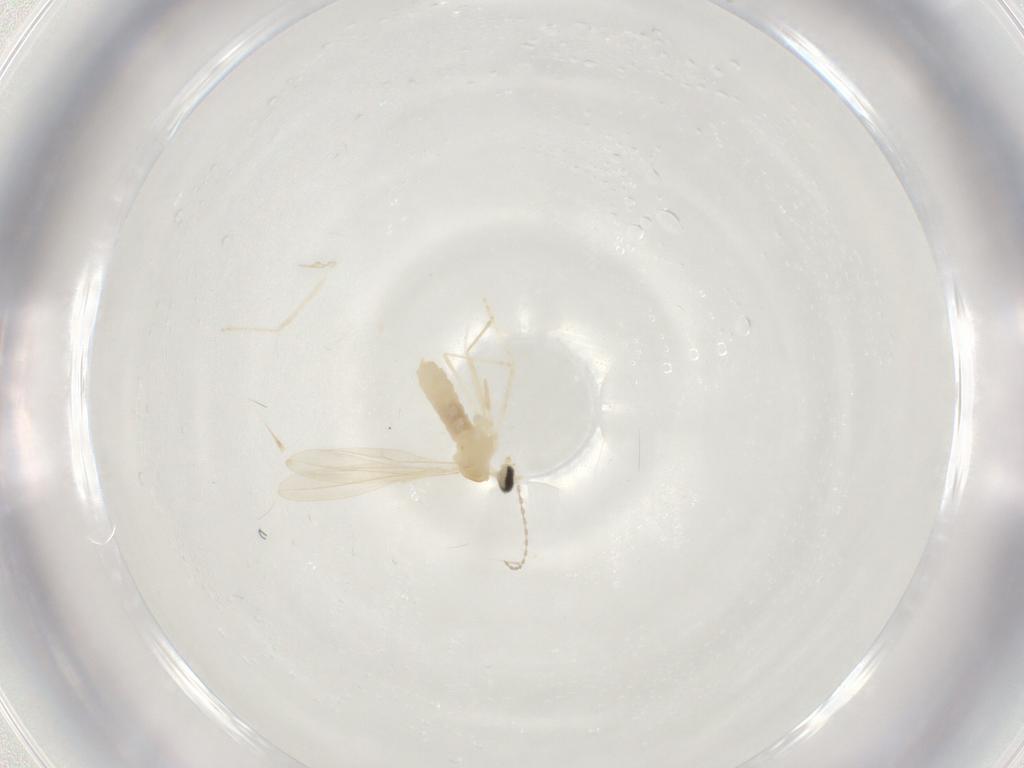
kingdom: Animalia
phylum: Arthropoda
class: Insecta
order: Diptera
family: Cecidomyiidae
